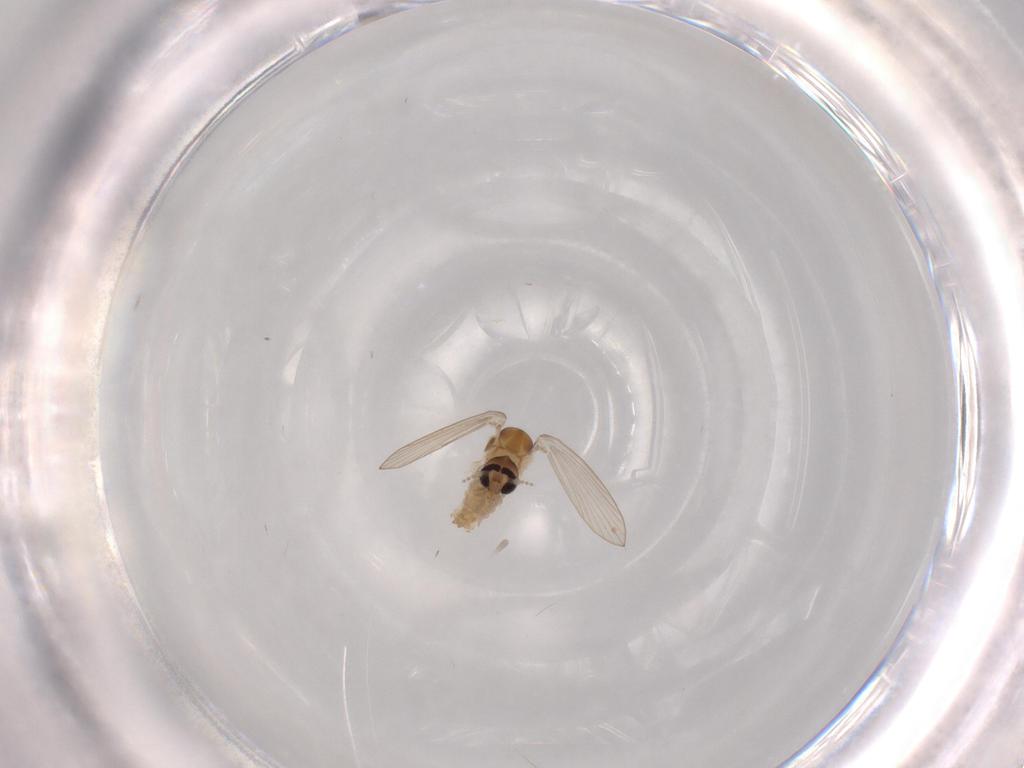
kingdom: Animalia
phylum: Arthropoda
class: Insecta
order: Diptera
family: Psychodidae
